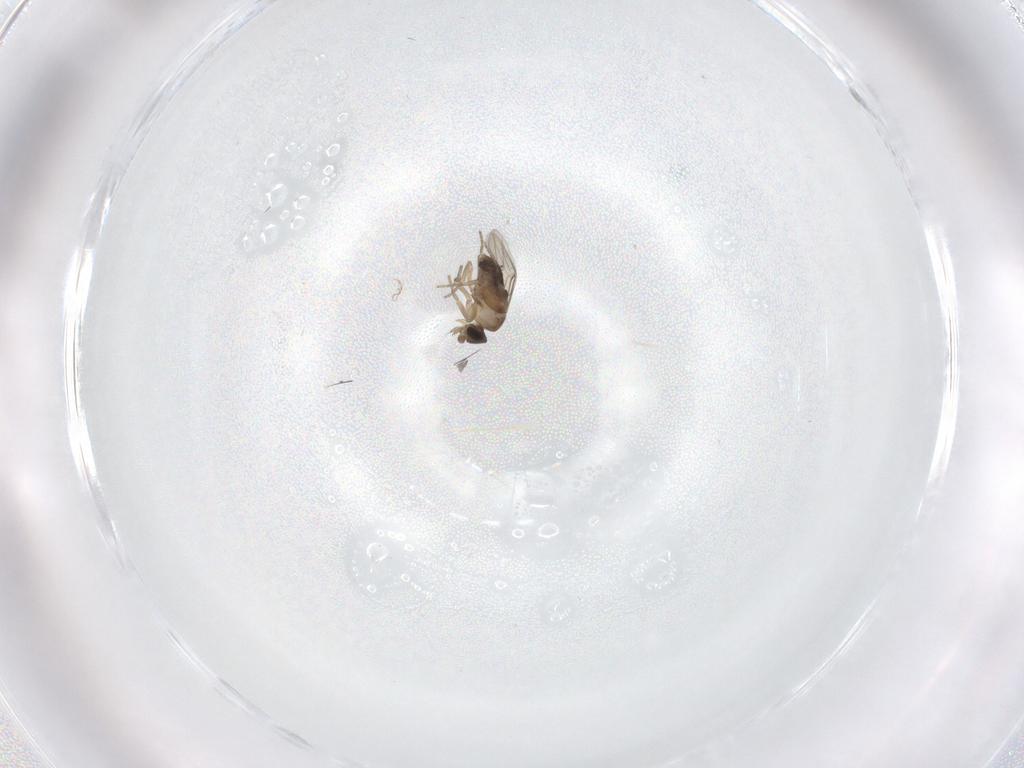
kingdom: Animalia
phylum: Arthropoda
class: Insecta
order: Diptera
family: Phoridae
